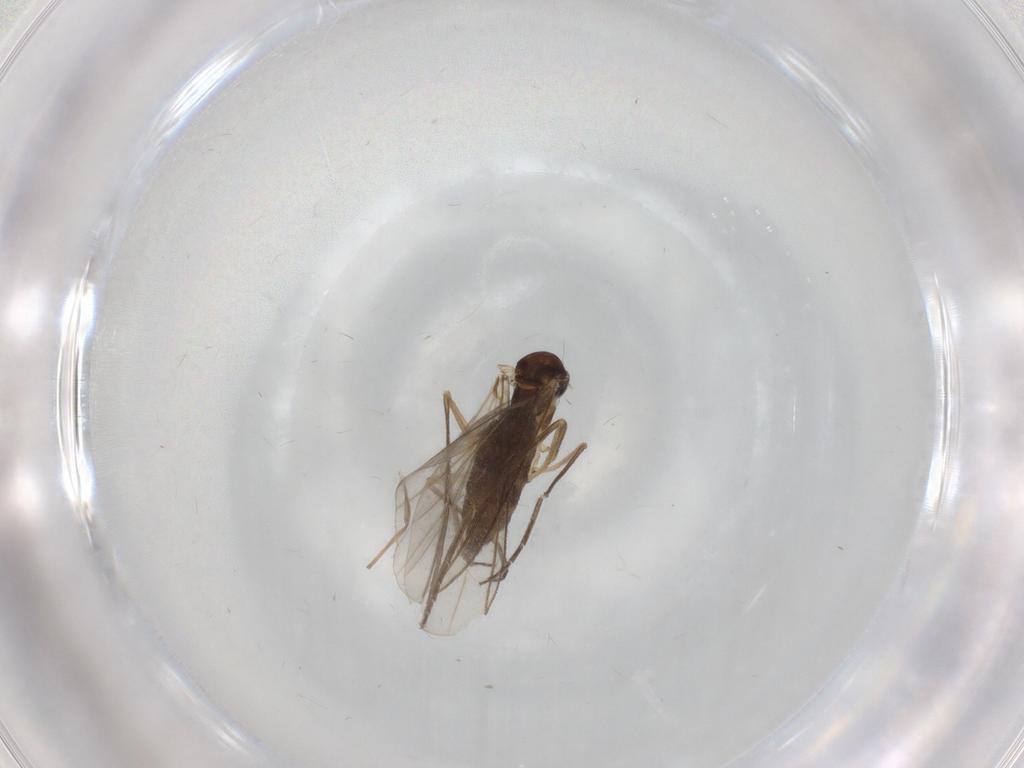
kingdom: Animalia
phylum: Arthropoda
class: Insecta
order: Diptera
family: Sciaridae
